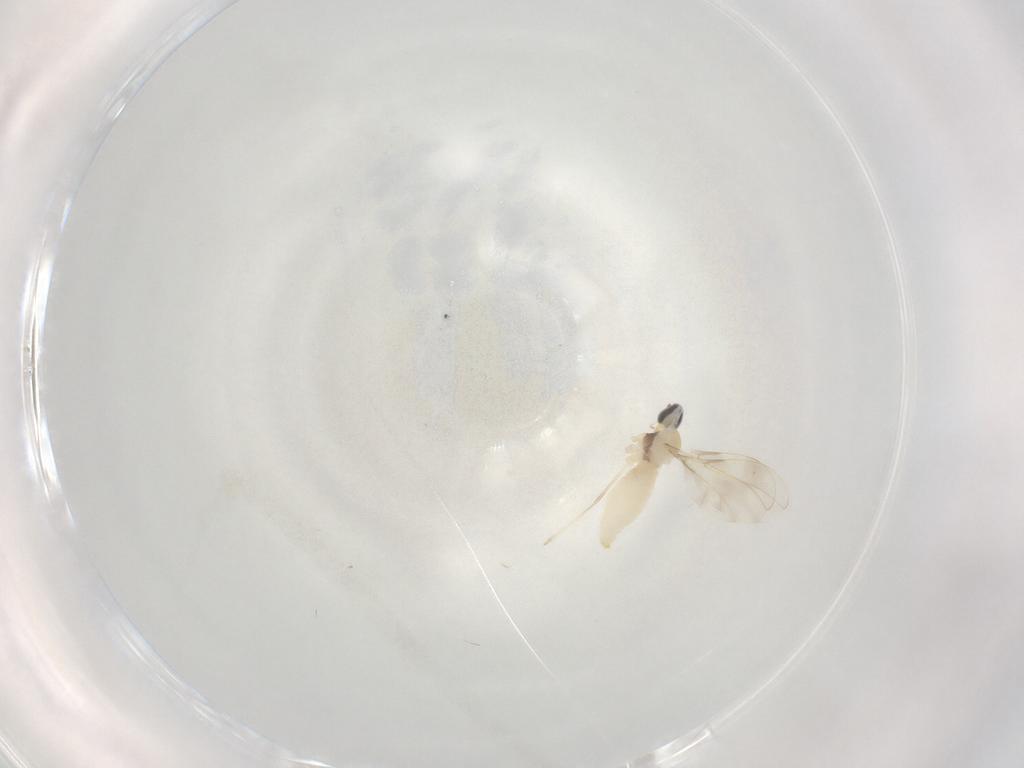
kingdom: Animalia
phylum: Arthropoda
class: Insecta
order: Diptera
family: Cecidomyiidae
